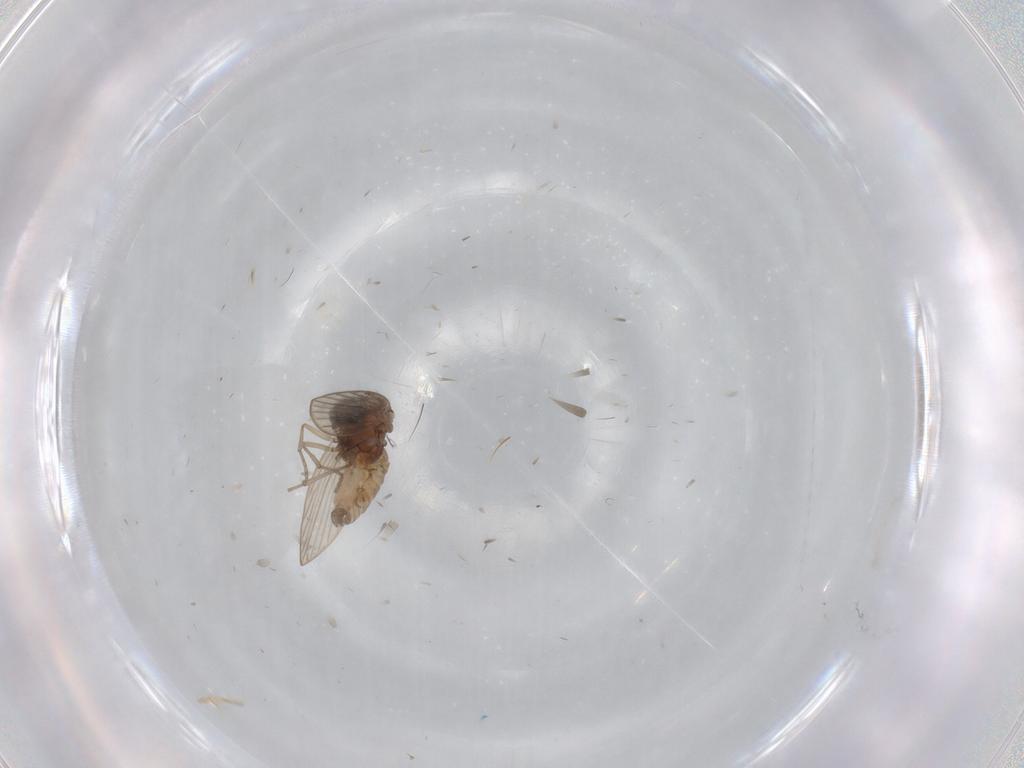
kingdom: Animalia
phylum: Arthropoda
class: Insecta
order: Diptera
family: Psychodidae
